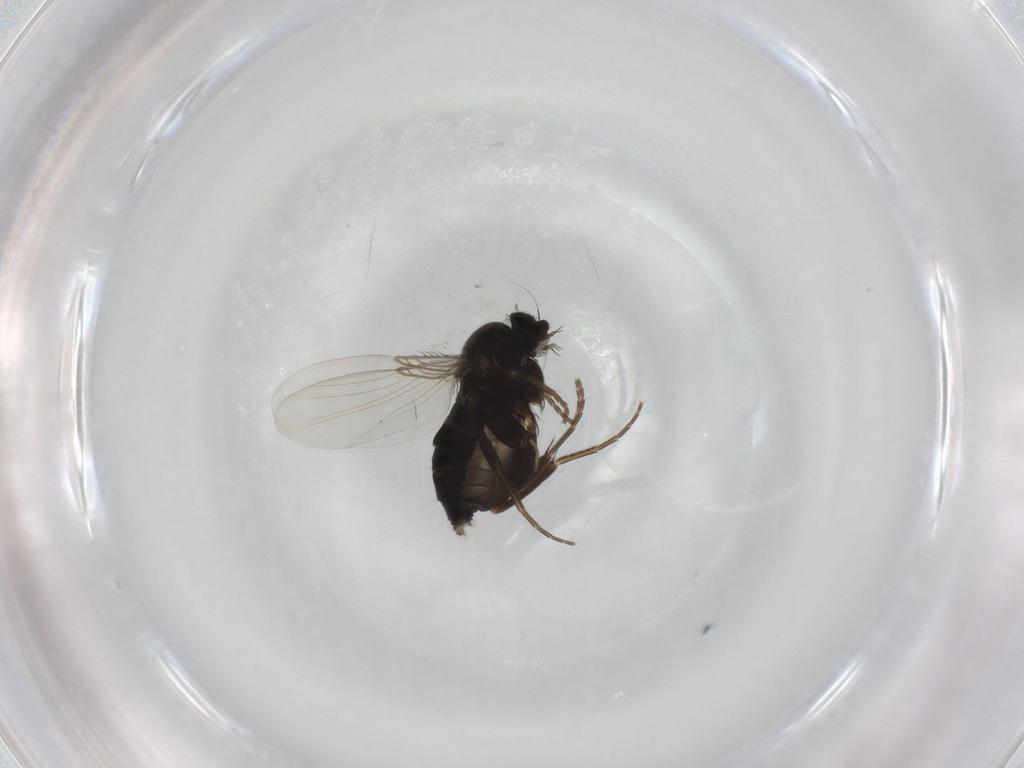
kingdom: Animalia
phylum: Arthropoda
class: Insecta
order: Diptera
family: Phoridae
